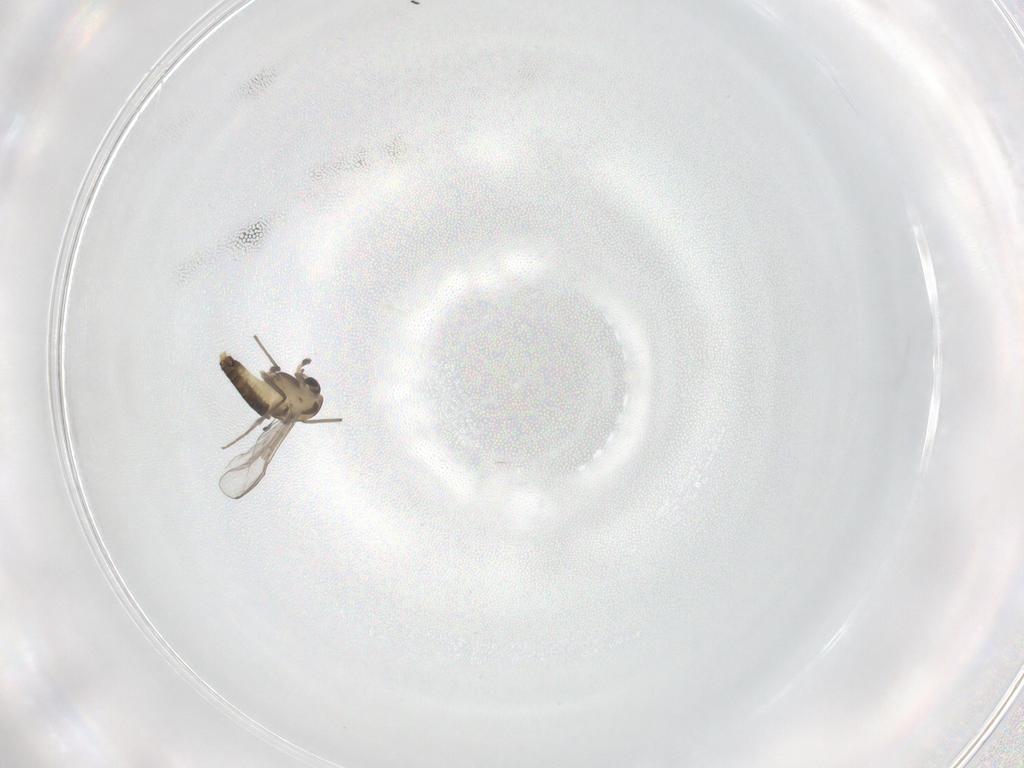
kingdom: Animalia
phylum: Arthropoda
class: Insecta
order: Diptera
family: Chironomidae
